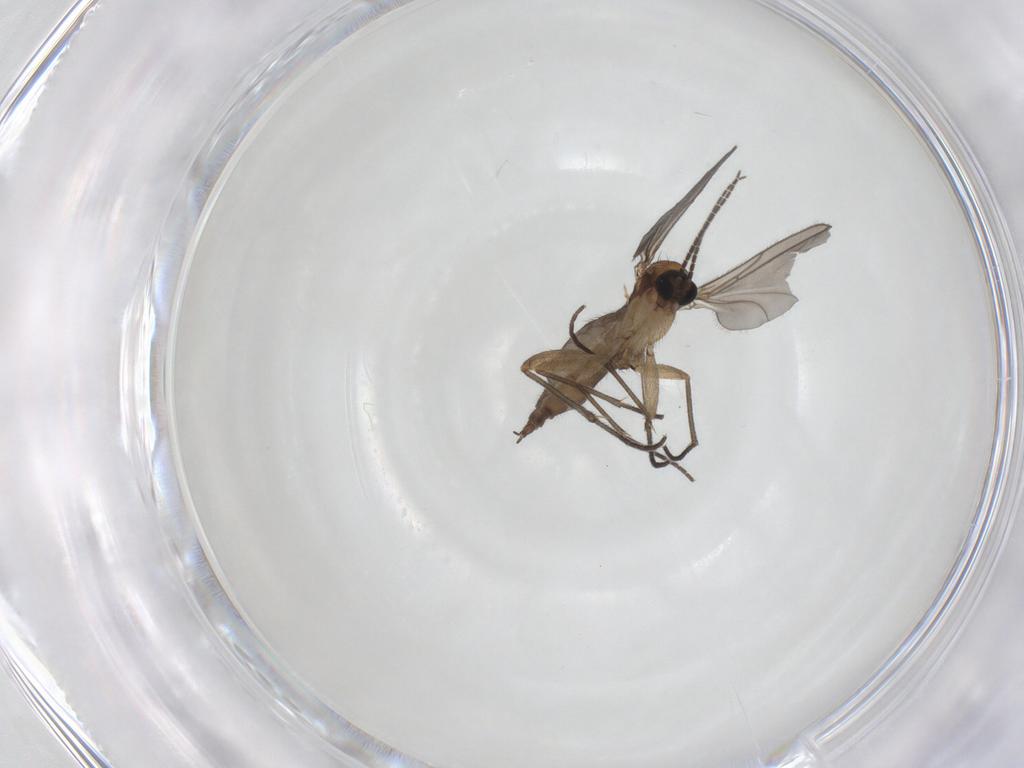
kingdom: Animalia
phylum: Arthropoda
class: Insecta
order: Diptera
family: Sciaridae
